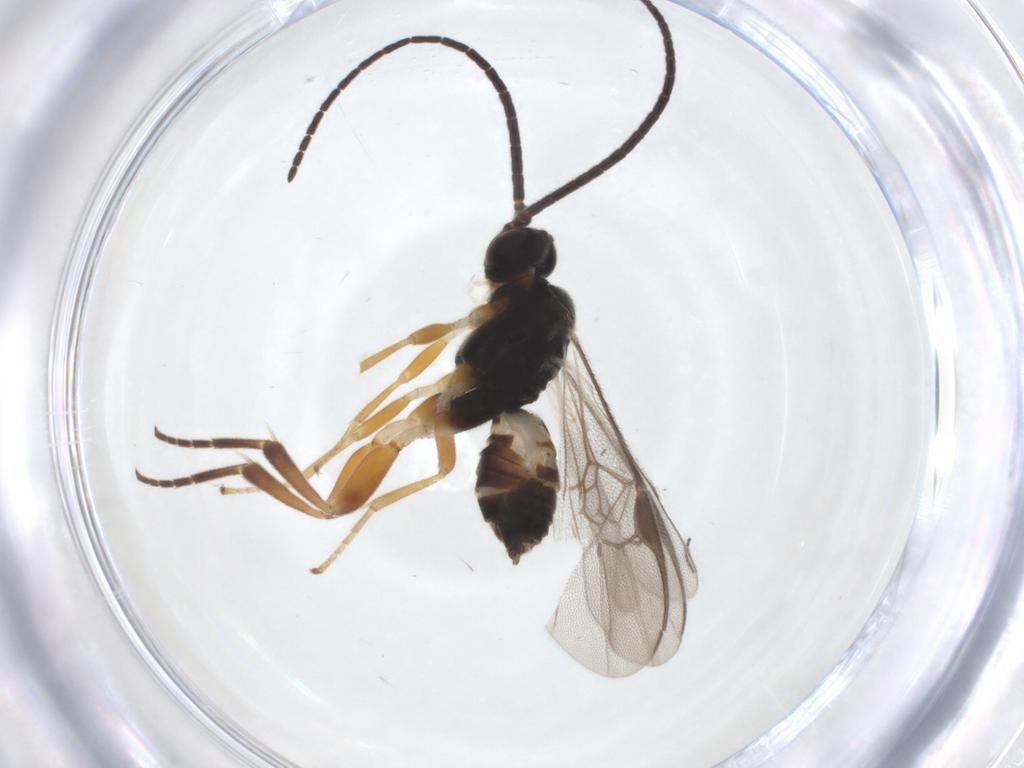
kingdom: Animalia
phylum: Arthropoda
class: Insecta
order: Hymenoptera
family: Braconidae
